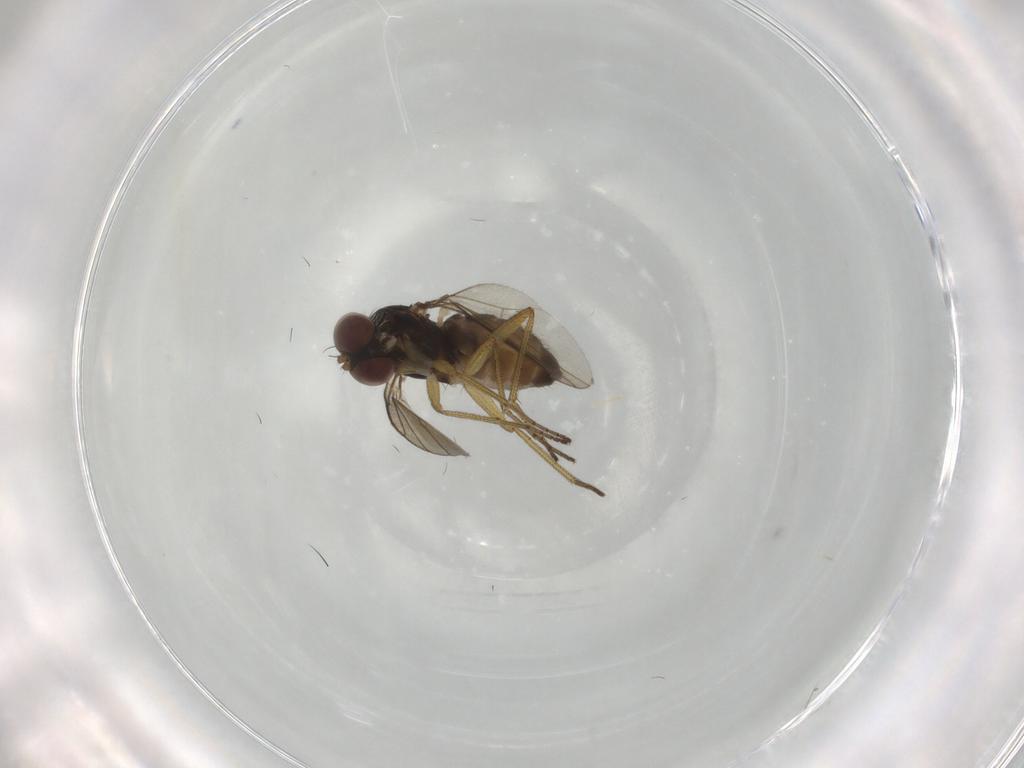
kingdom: Animalia
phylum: Arthropoda
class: Insecta
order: Diptera
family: Dolichopodidae
